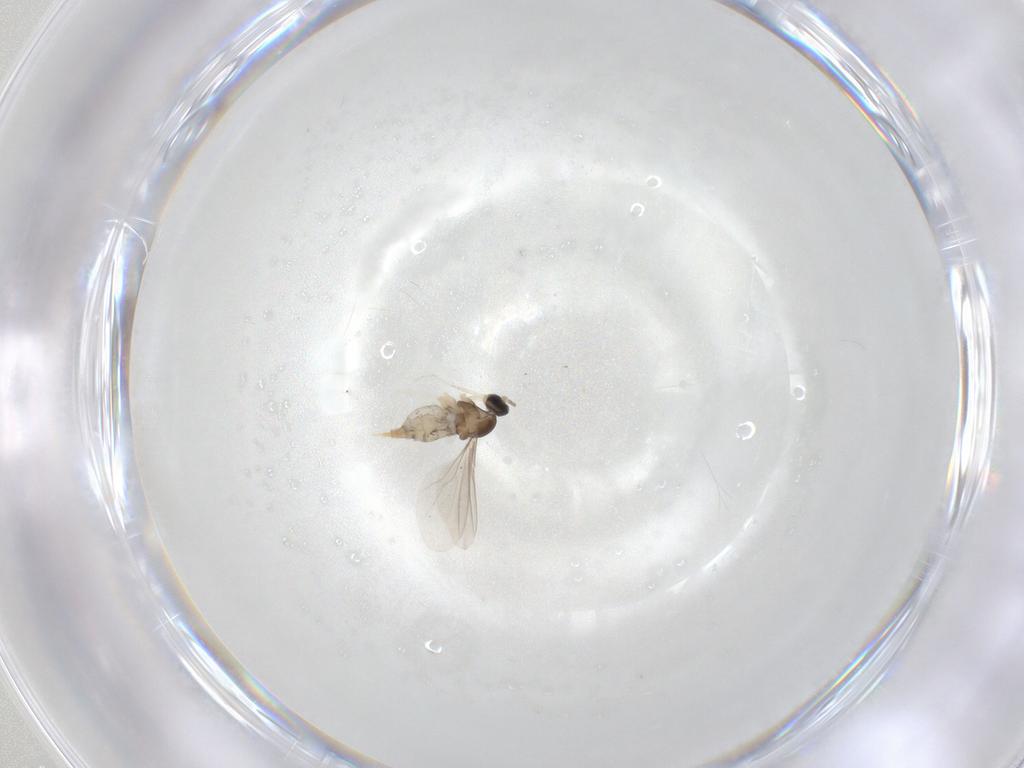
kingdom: Animalia
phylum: Arthropoda
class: Insecta
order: Diptera
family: Cecidomyiidae
